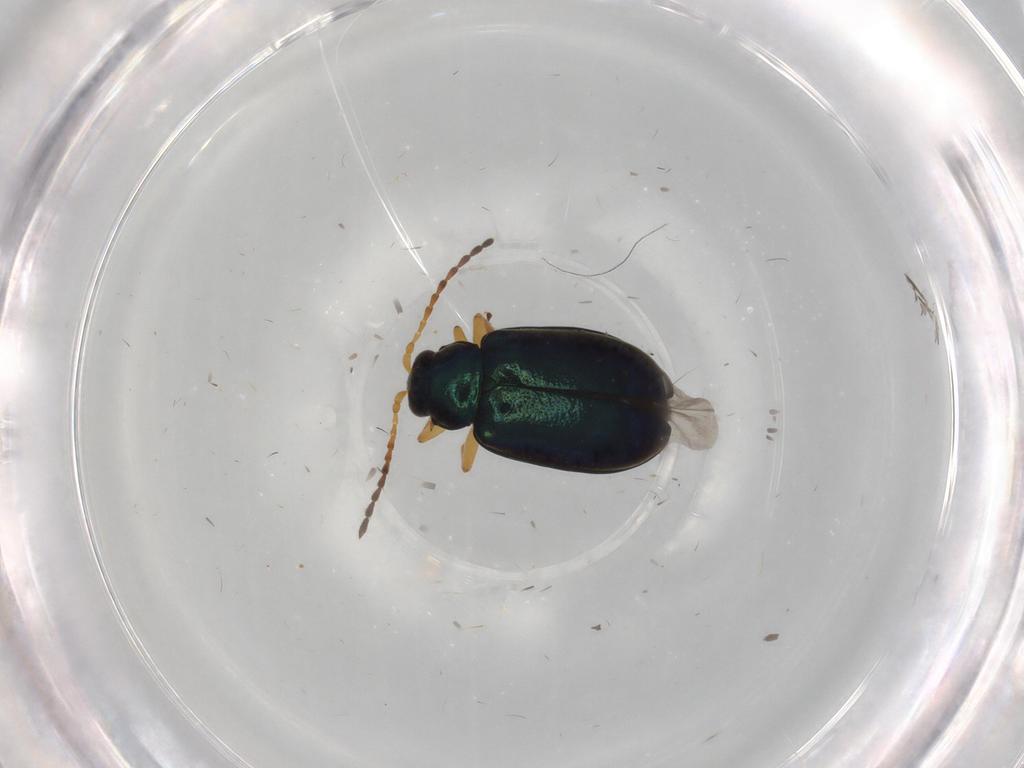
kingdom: Animalia
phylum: Arthropoda
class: Insecta
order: Coleoptera
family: Chrysomelidae
